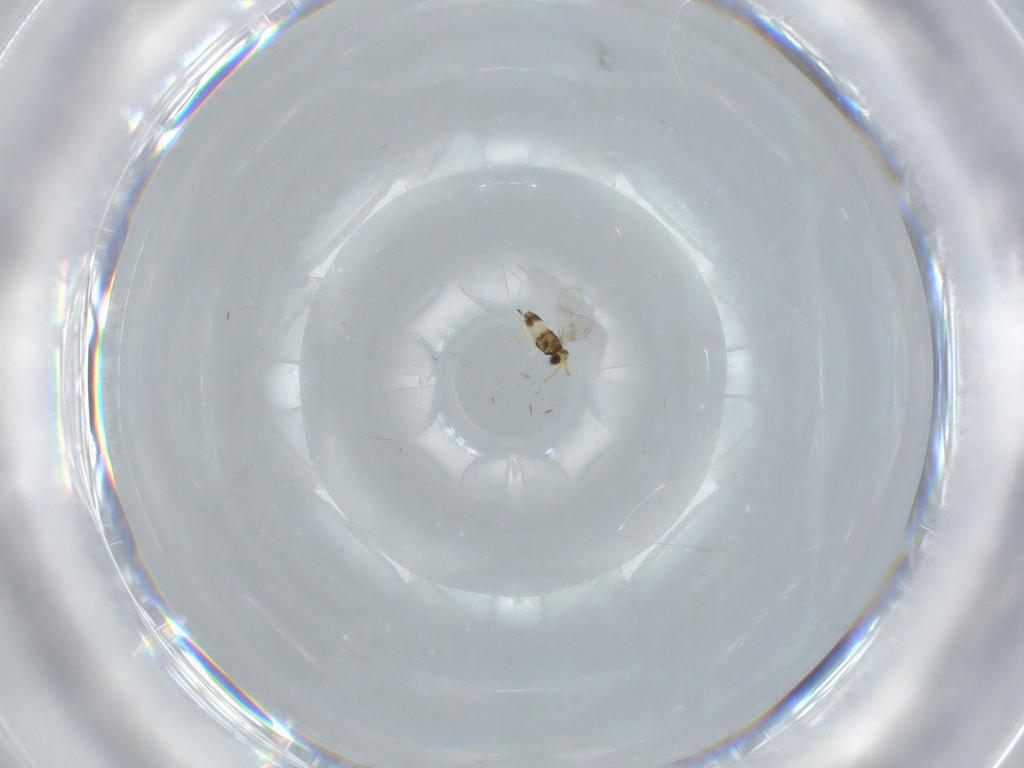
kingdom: Animalia
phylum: Arthropoda
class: Insecta
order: Hymenoptera
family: Aphelinidae
